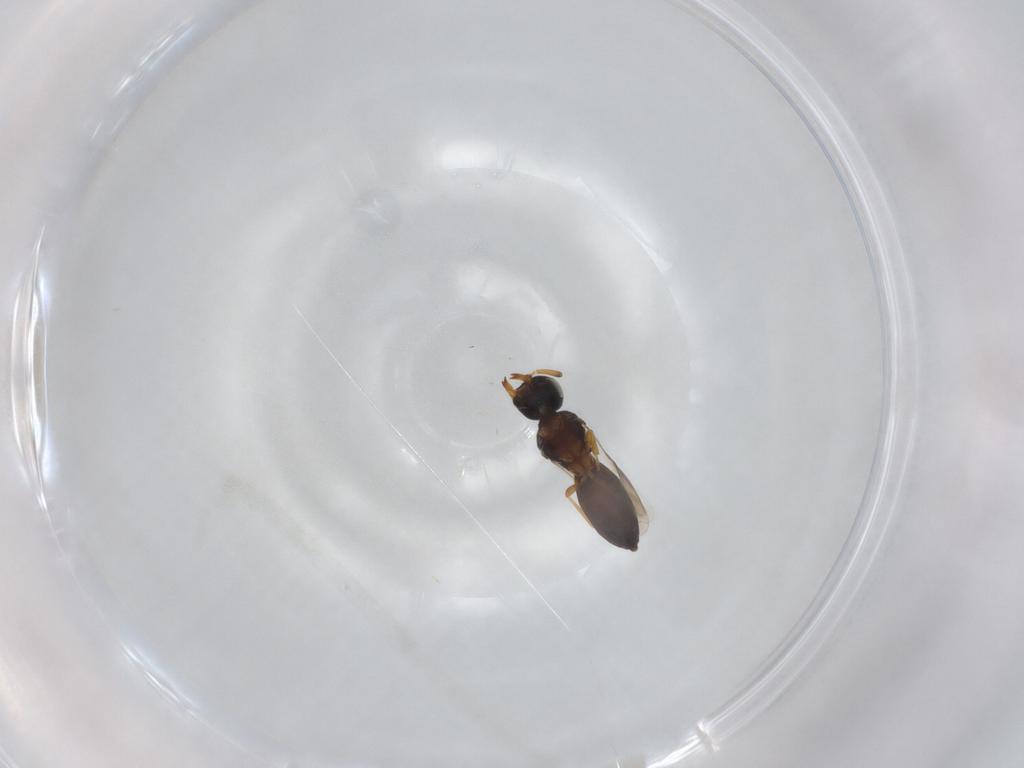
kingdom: Animalia
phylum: Arthropoda
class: Insecta
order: Hymenoptera
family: Scelionidae
